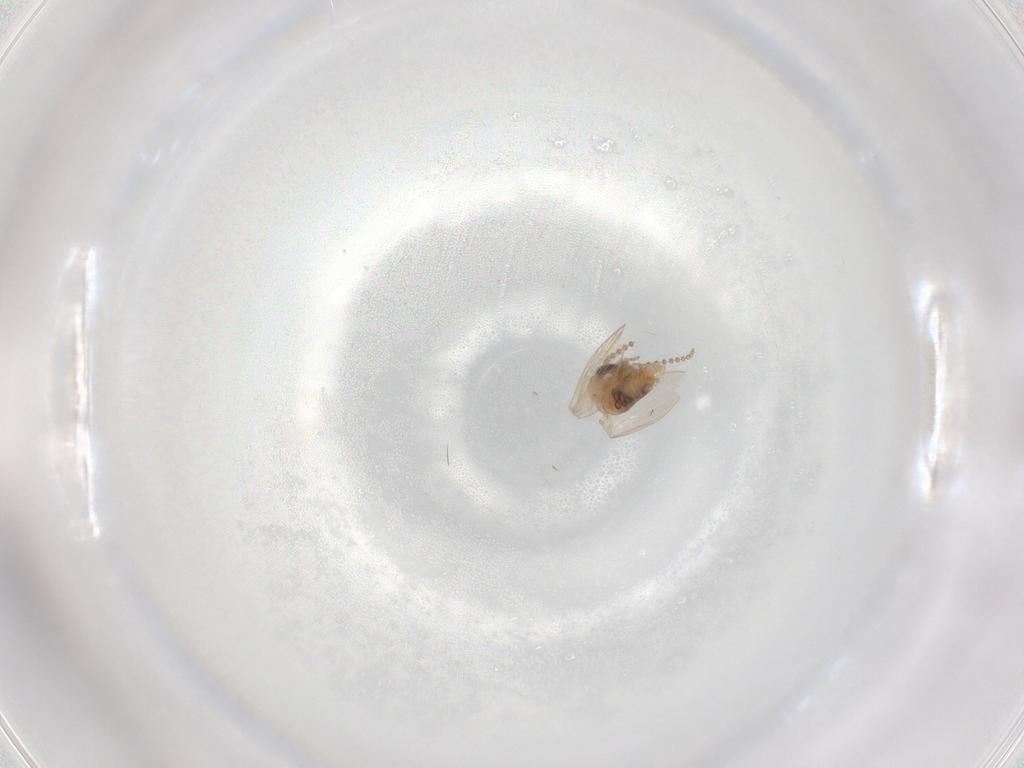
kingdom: Animalia
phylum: Arthropoda
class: Insecta
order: Diptera
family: Psychodidae
